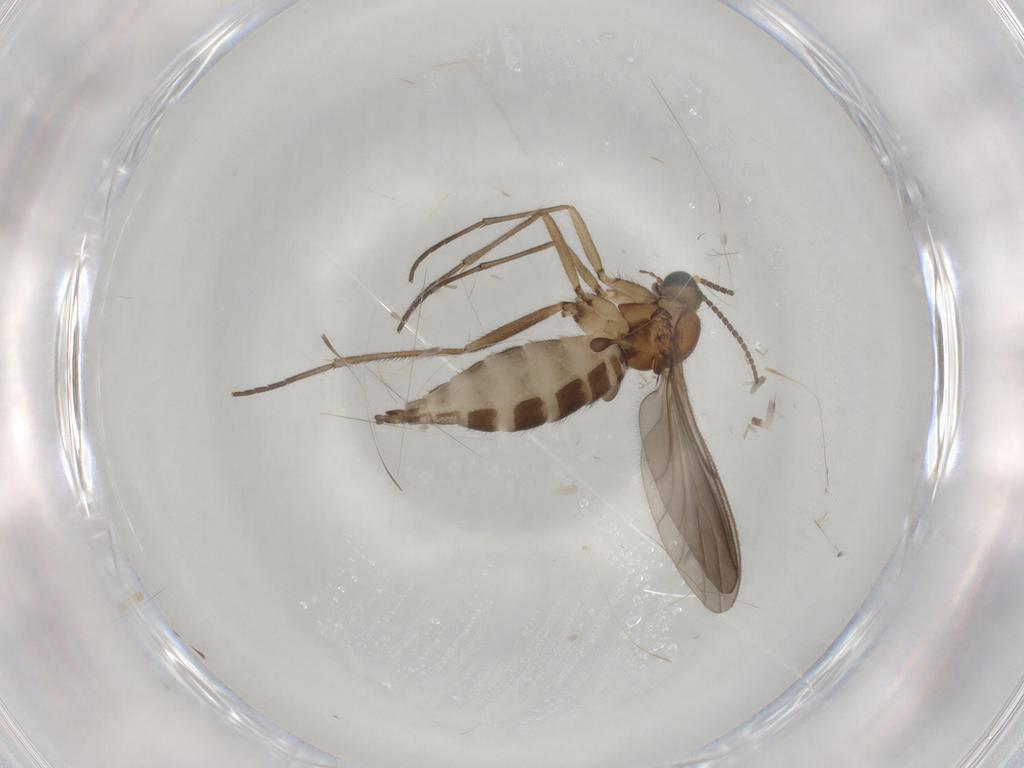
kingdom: Animalia
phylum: Arthropoda
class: Insecta
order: Diptera
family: Sciaridae
